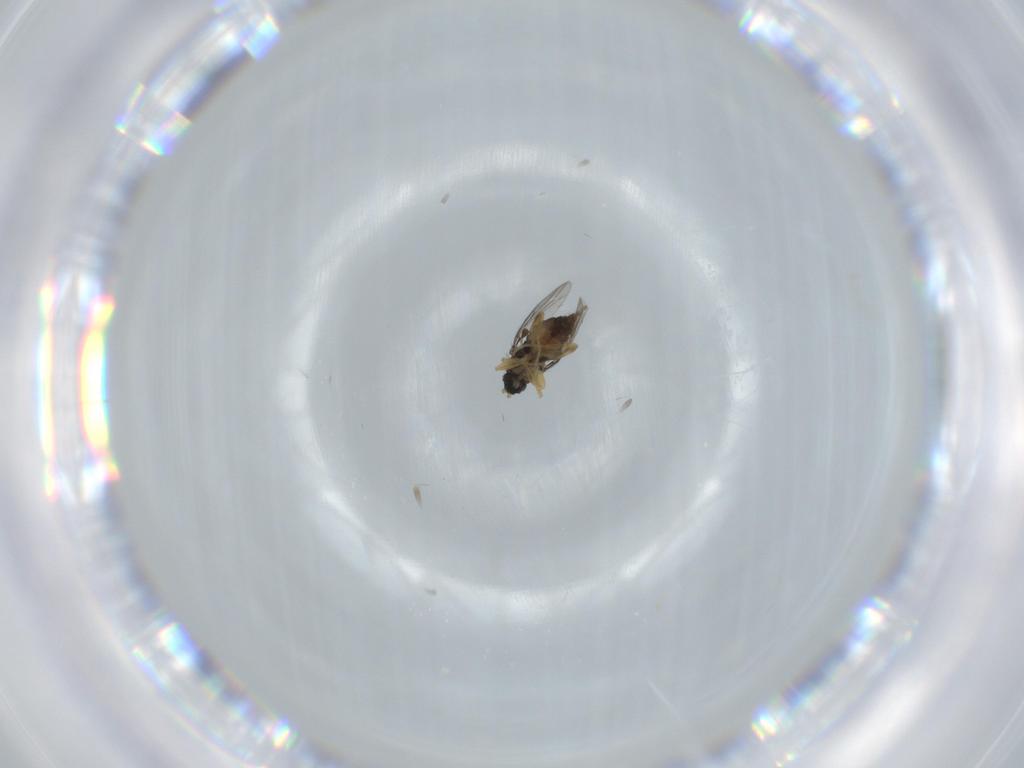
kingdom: Animalia
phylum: Arthropoda
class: Insecta
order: Diptera
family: Hybotidae
